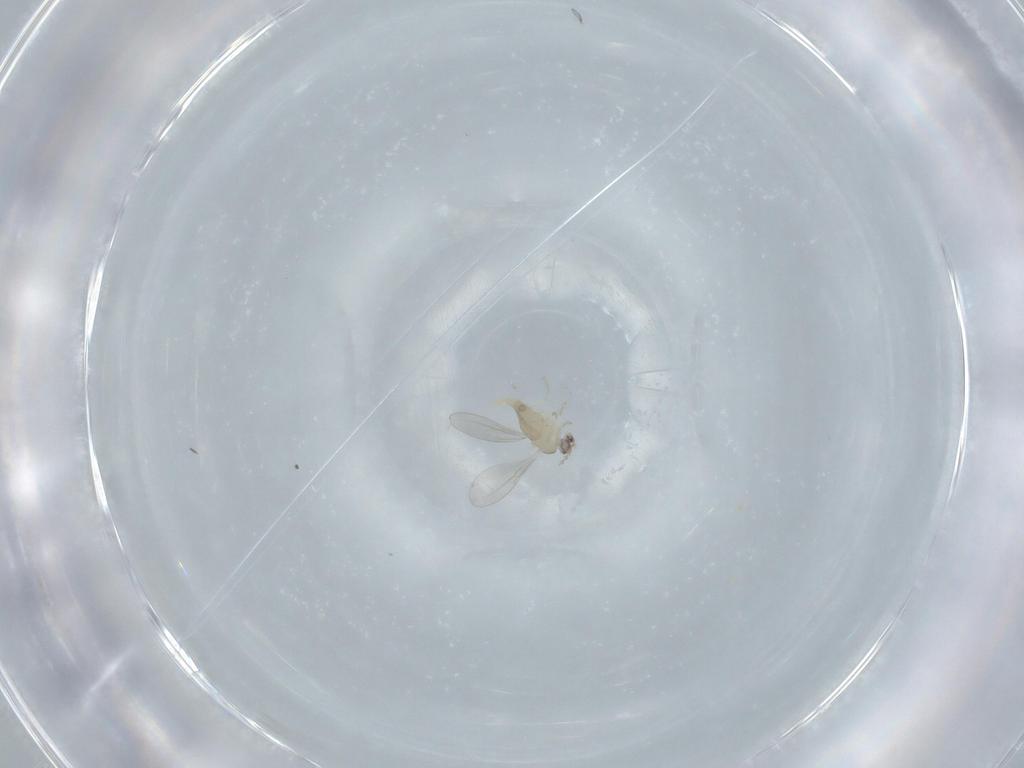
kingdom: Animalia
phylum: Arthropoda
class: Insecta
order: Diptera
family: Cecidomyiidae
